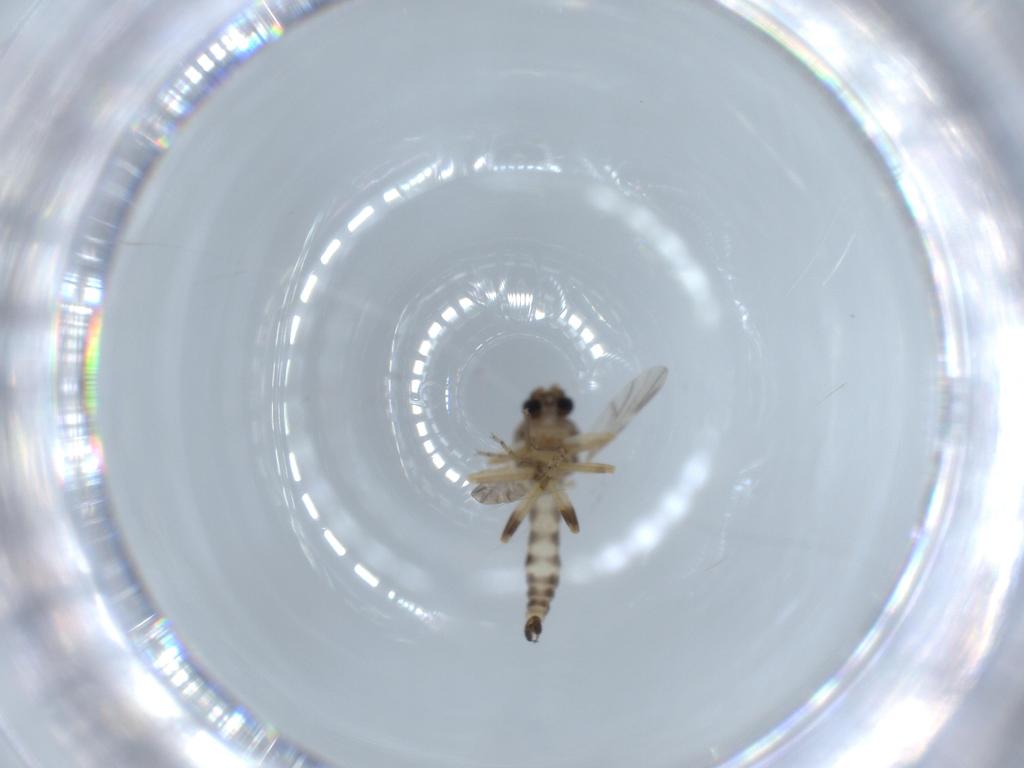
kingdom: Animalia
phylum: Arthropoda
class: Insecta
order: Diptera
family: Ceratopogonidae
